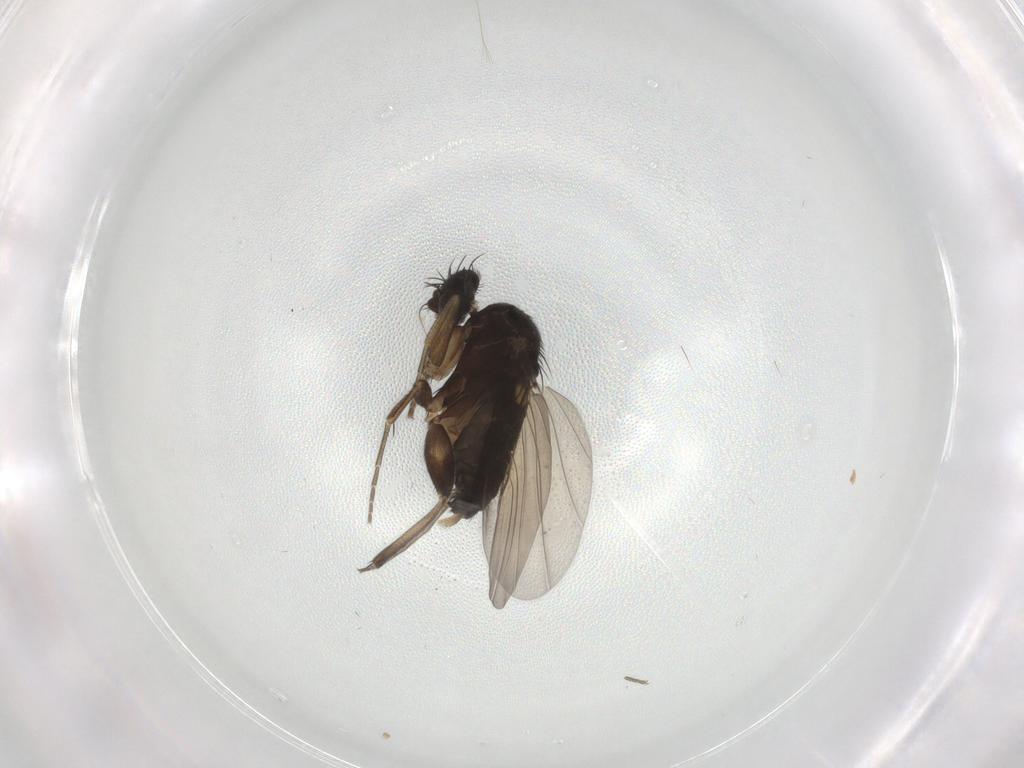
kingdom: Animalia
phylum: Arthropoda
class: Insecta
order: Diptera
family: Phoridae
